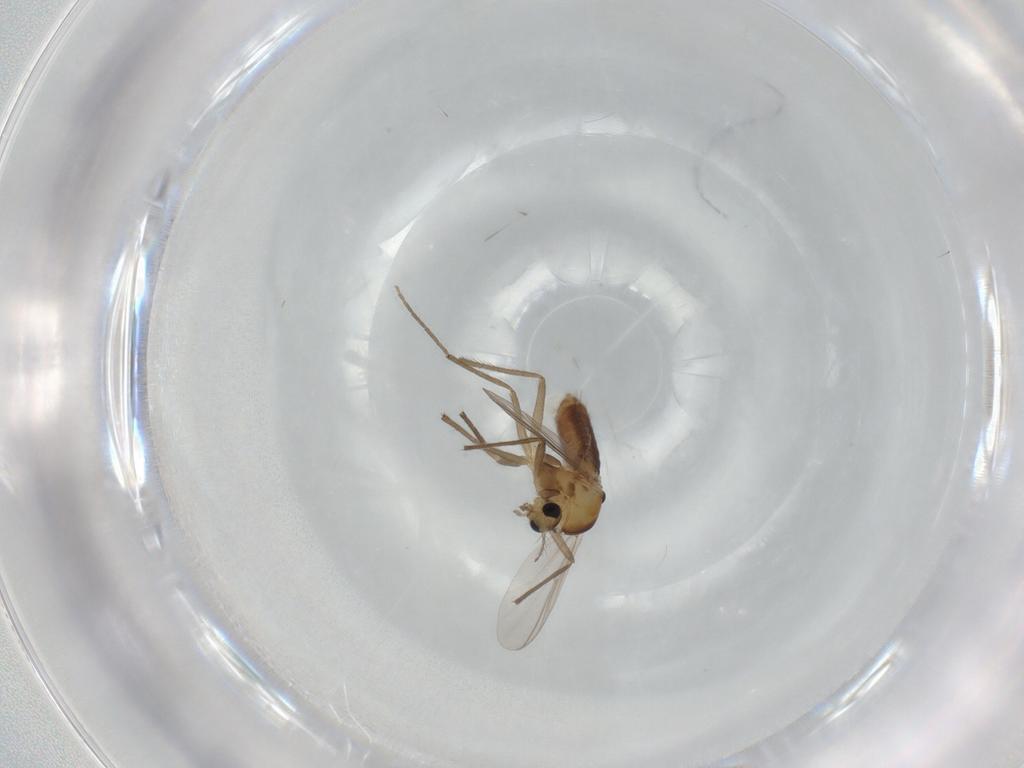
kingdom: Animalia
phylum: Arthropoda
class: Insecta
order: Diptera
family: Chironomidae
